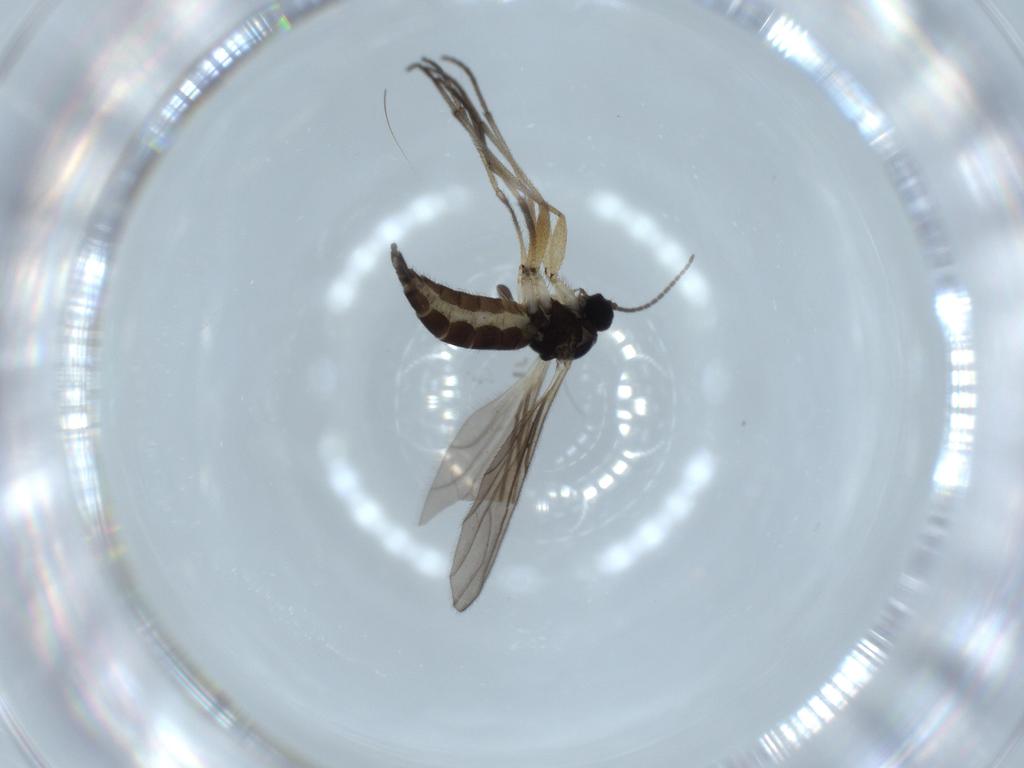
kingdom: Animalia
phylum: Arthropoda
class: Insecta
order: Diptera
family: Sciaridae
